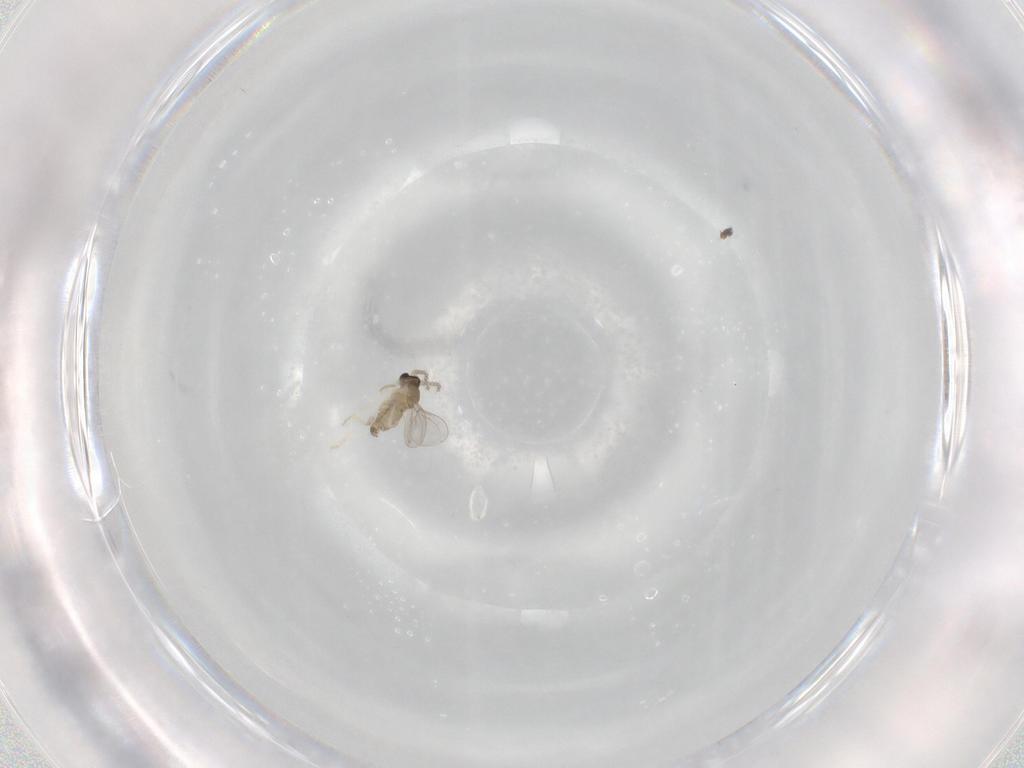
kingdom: Animalia
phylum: Arthropoda
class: Insecta
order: Diptera
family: Cecidomyiidae
